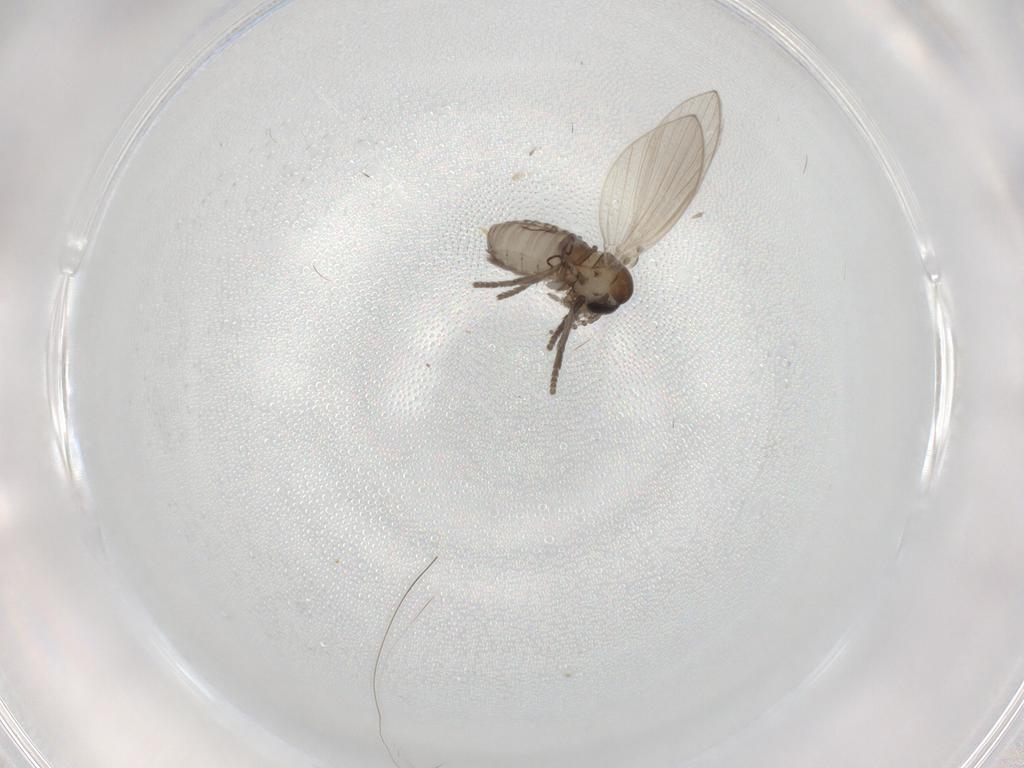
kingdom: Animalia
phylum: Arthropoda
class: Insecta
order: Diptera
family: Psychodidae
